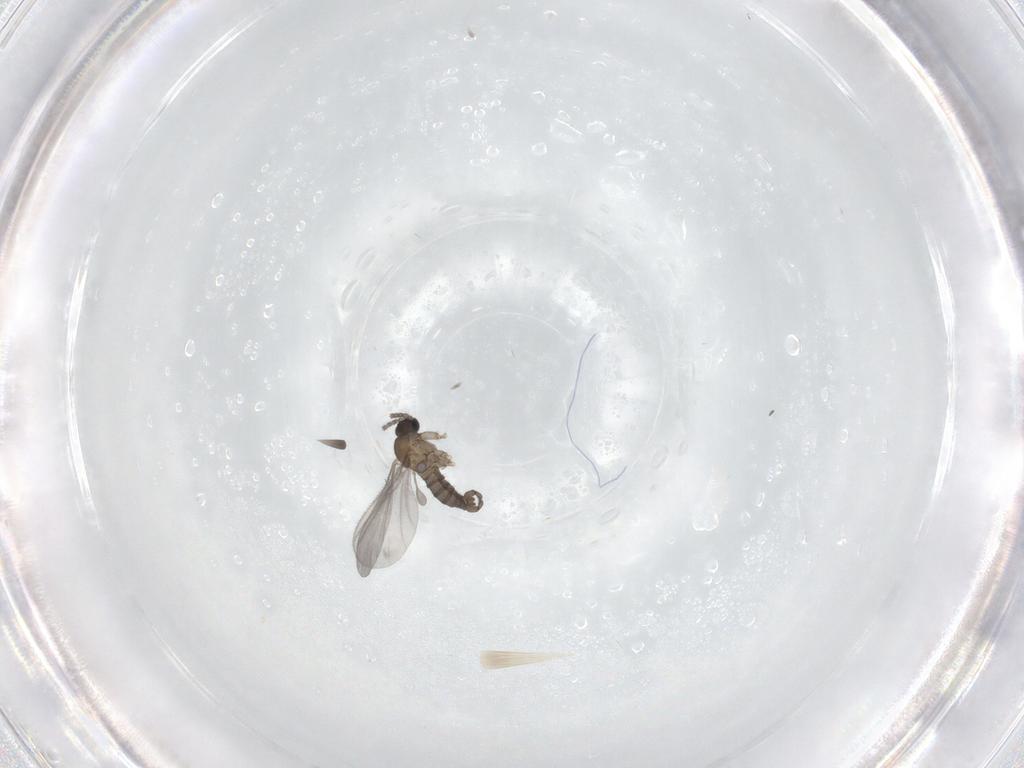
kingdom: Animalia
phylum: Arthropoda
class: Insecta
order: Diptera
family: Sciaridae
